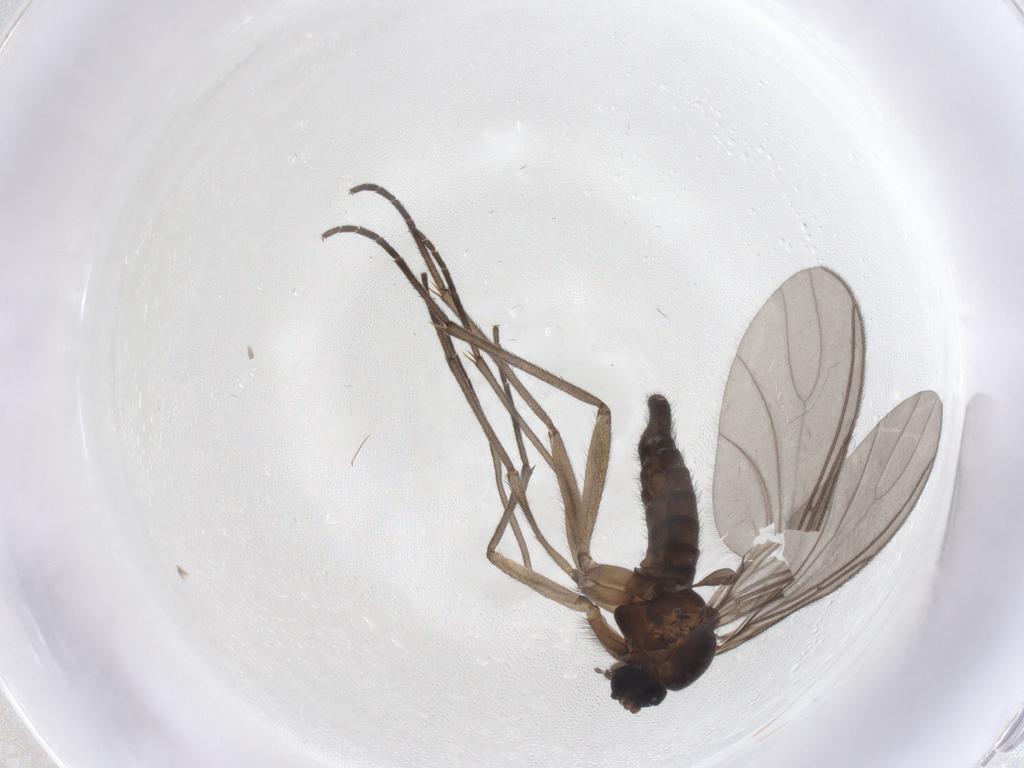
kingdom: Animalia
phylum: Arthropoda
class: Insecta
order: Diptera
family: Sciaridae
